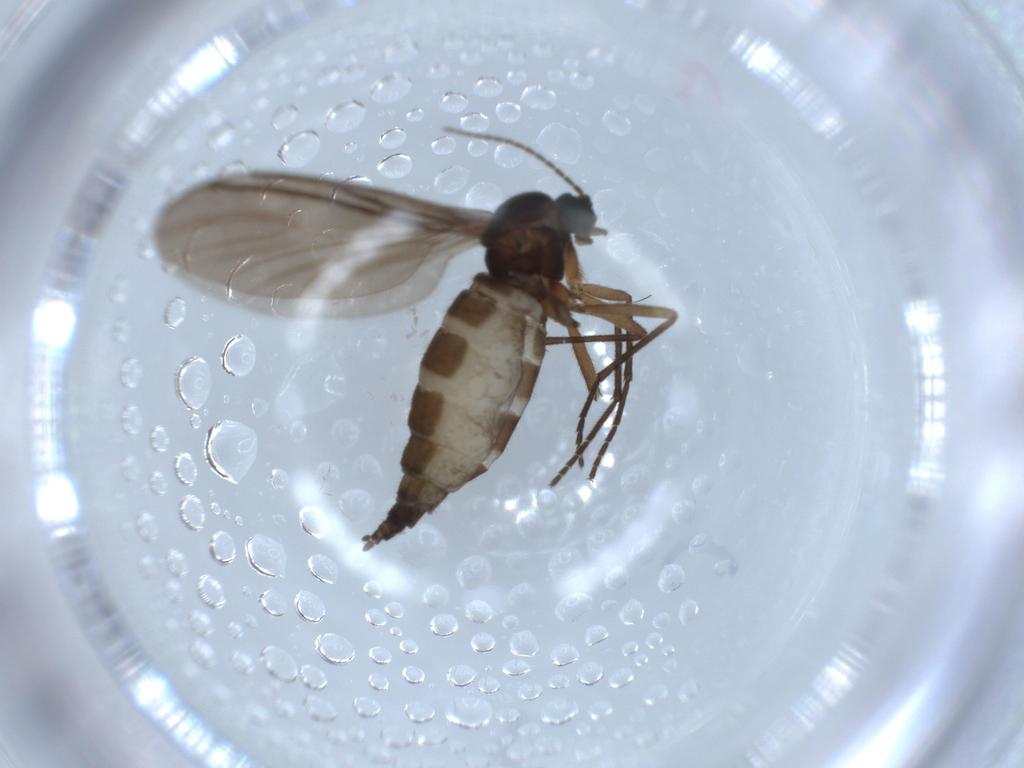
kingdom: Animalia
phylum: Arthropoda
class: Insecta
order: Diptera
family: Sciaridae
